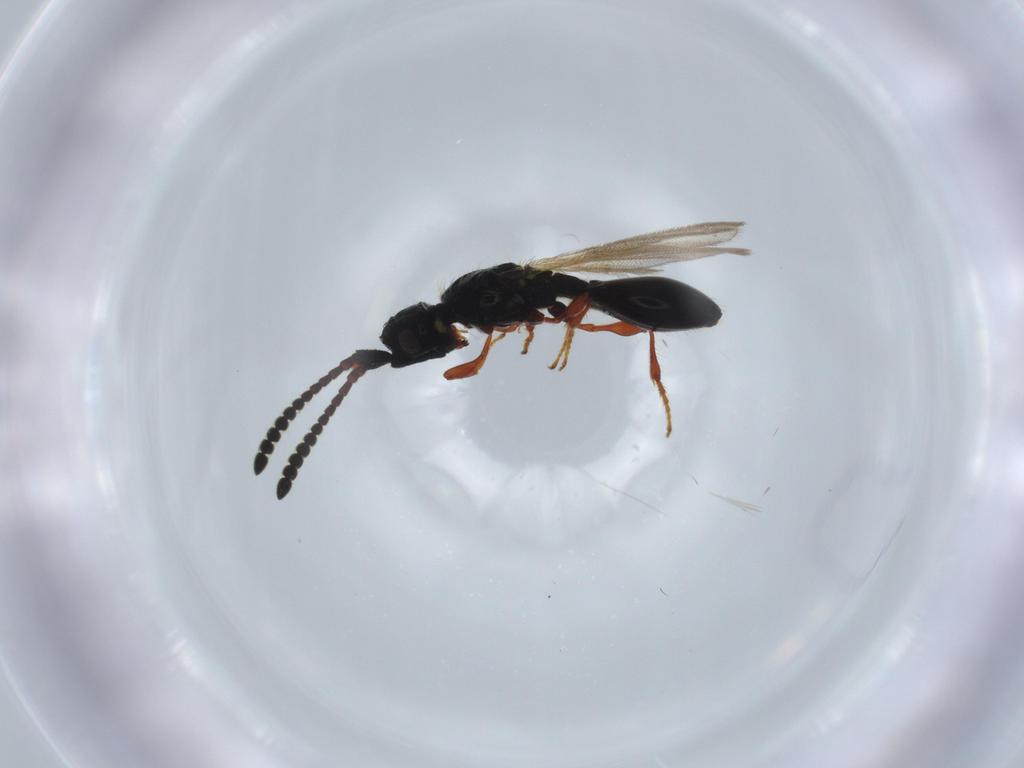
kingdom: Animalia
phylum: Arthropoda
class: Insecta
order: Hymenoptera
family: Diapriidae
